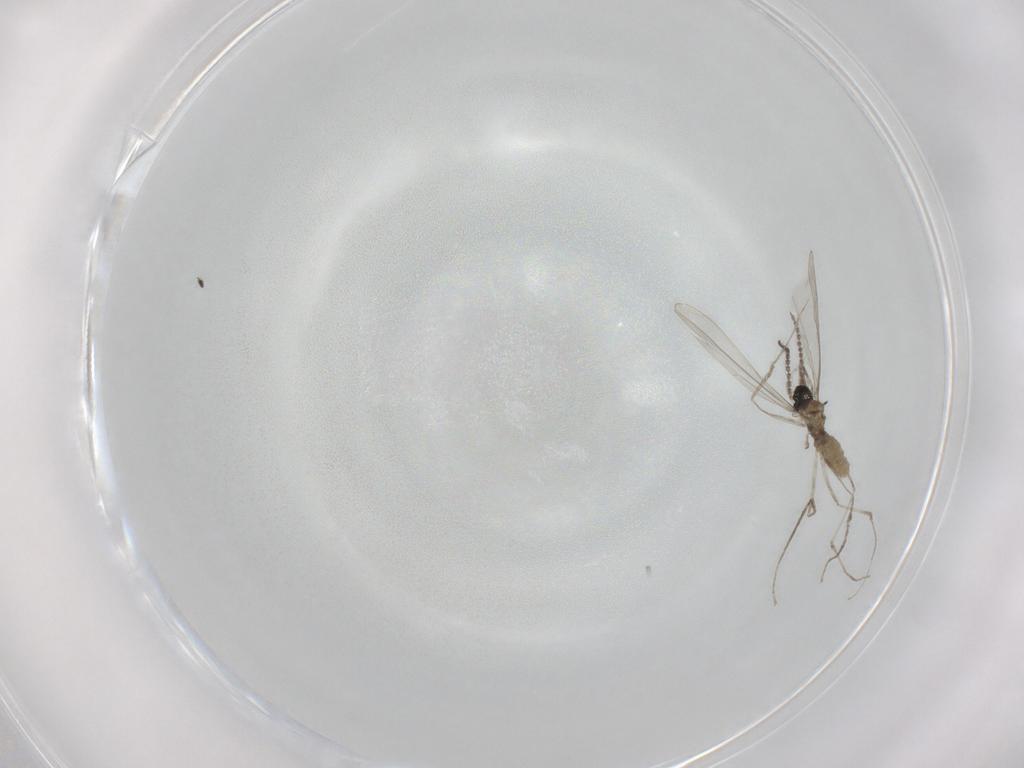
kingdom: Animalia
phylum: Arthropoda
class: Insecta
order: Diptera
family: Cecidomyiidae
